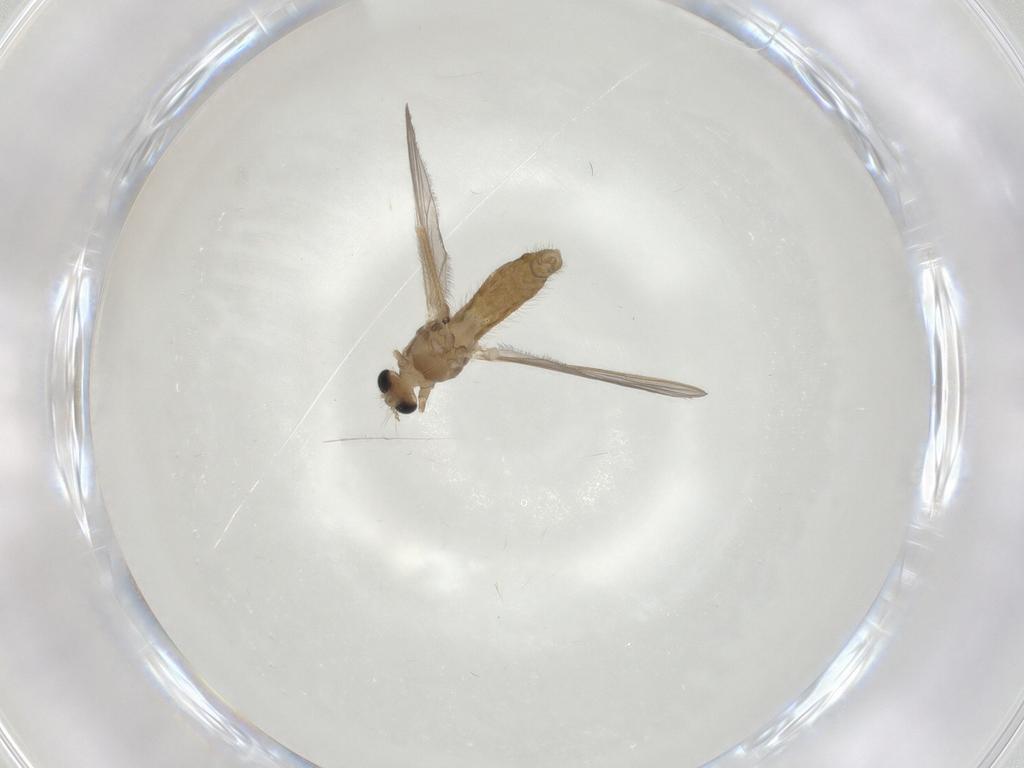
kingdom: Animalia
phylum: Arthropoda
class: Insecta
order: Diptera
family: Chironomidae
